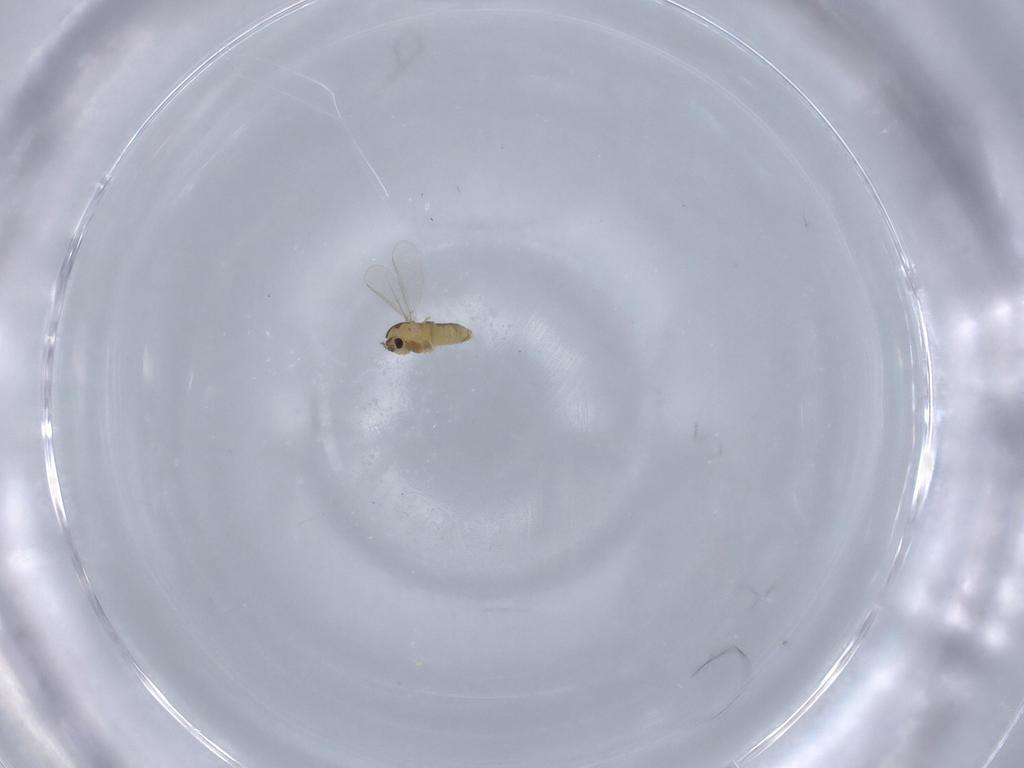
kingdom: Animalia
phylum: Arthropoda
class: Insecta
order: Diptera
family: Chironomidae
